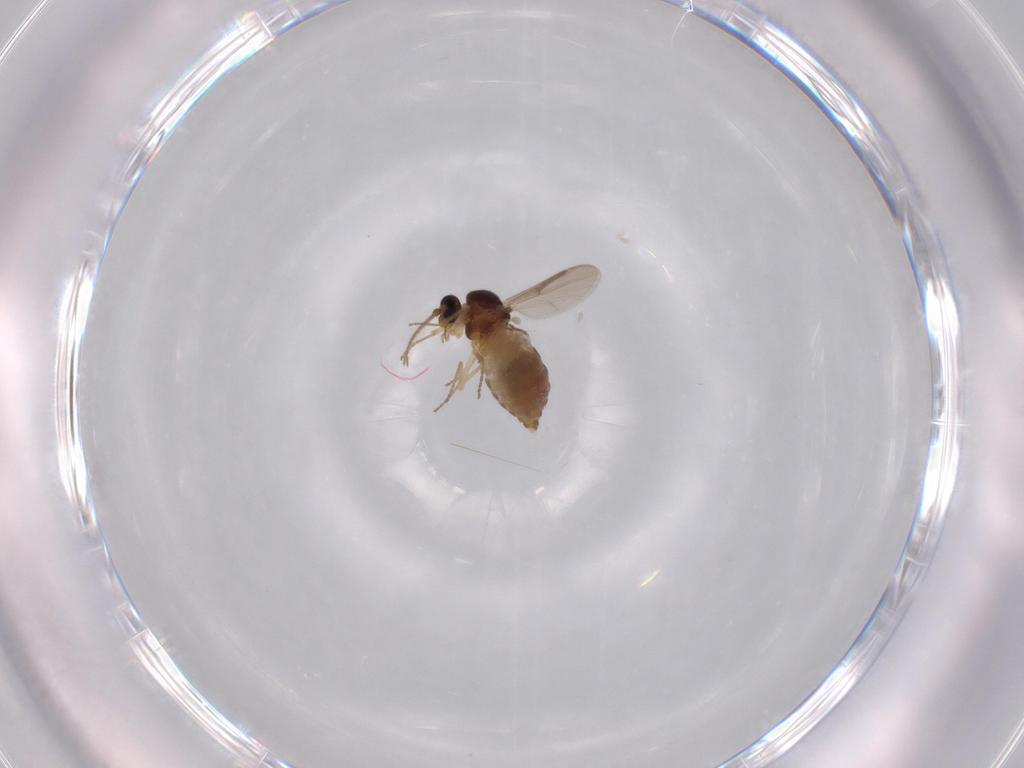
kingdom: Animalia
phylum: Arthropoda
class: Insecta
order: Diptera
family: Ceratopogonidae
